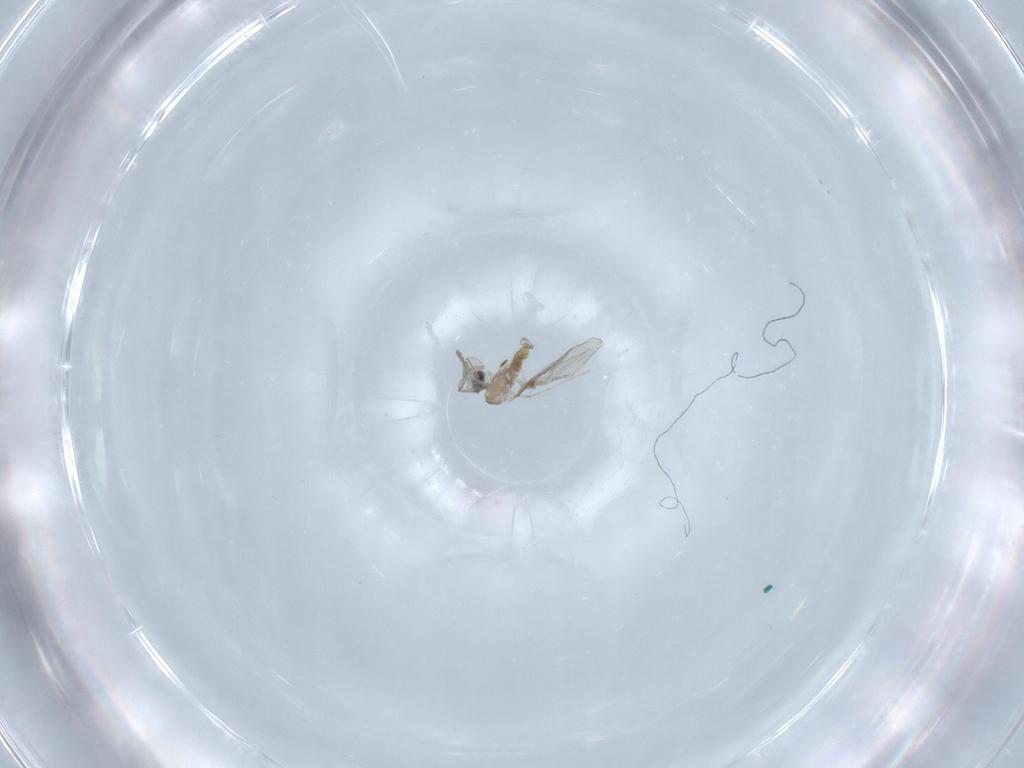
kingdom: Animalia
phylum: Arthropoda
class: Insecta
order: Diptera
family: Cecidomyiidae
